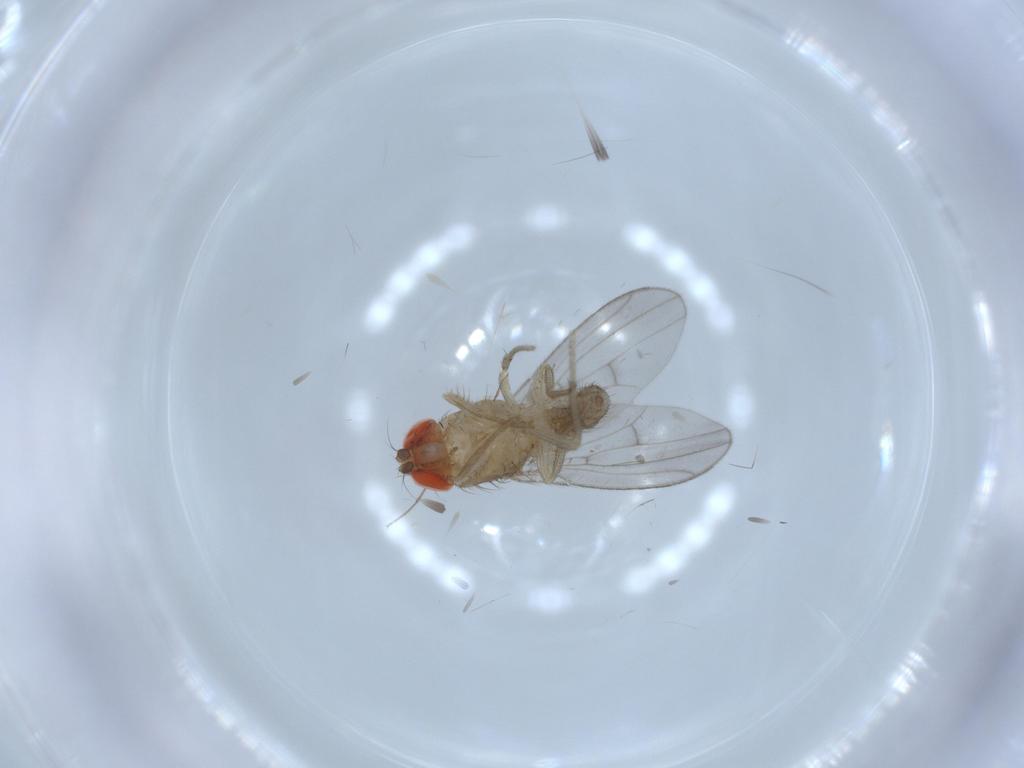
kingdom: Animalia
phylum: Arthropoda
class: Insecta
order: Diptera
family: Drosophilidae
